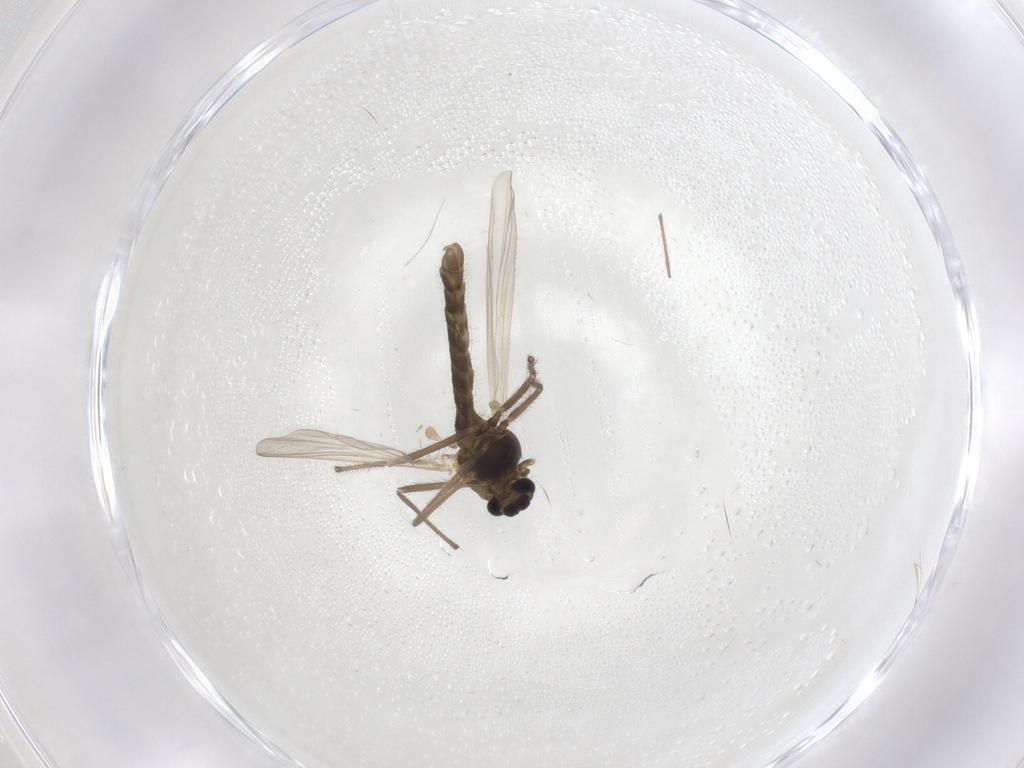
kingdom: Animalia
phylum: Arthropoda
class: Insecta
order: Diptera
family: Chironomidae
